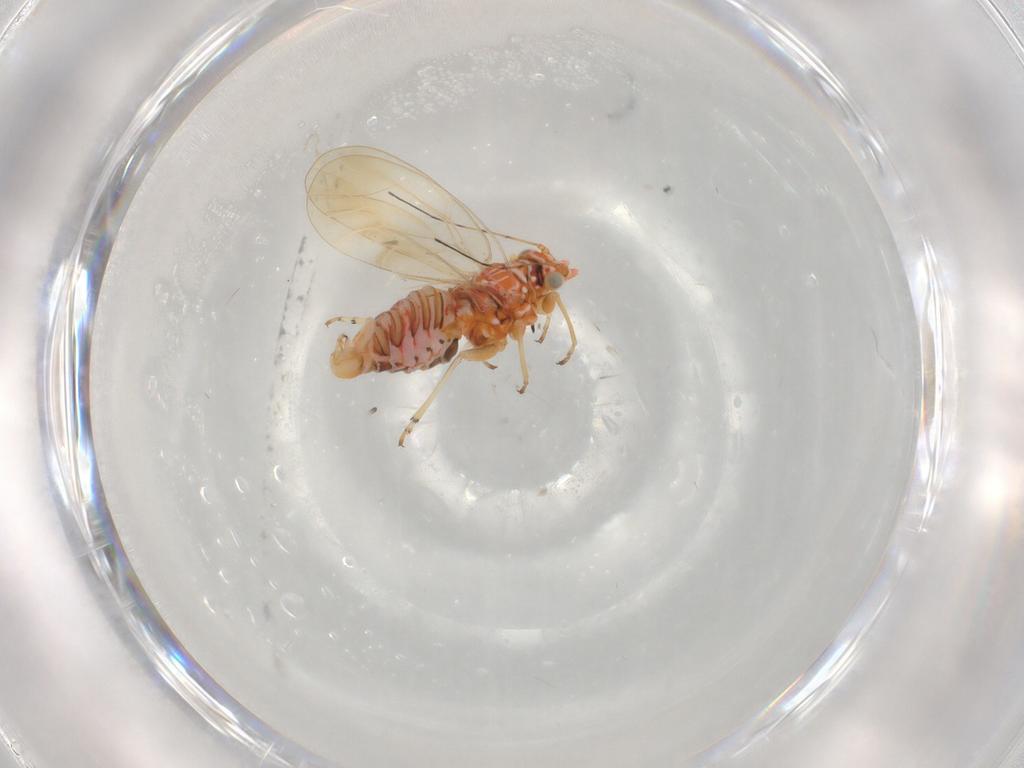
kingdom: Animalia
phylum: Arthropoda
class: Insecta
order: Hemiptera
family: Psyllidae
